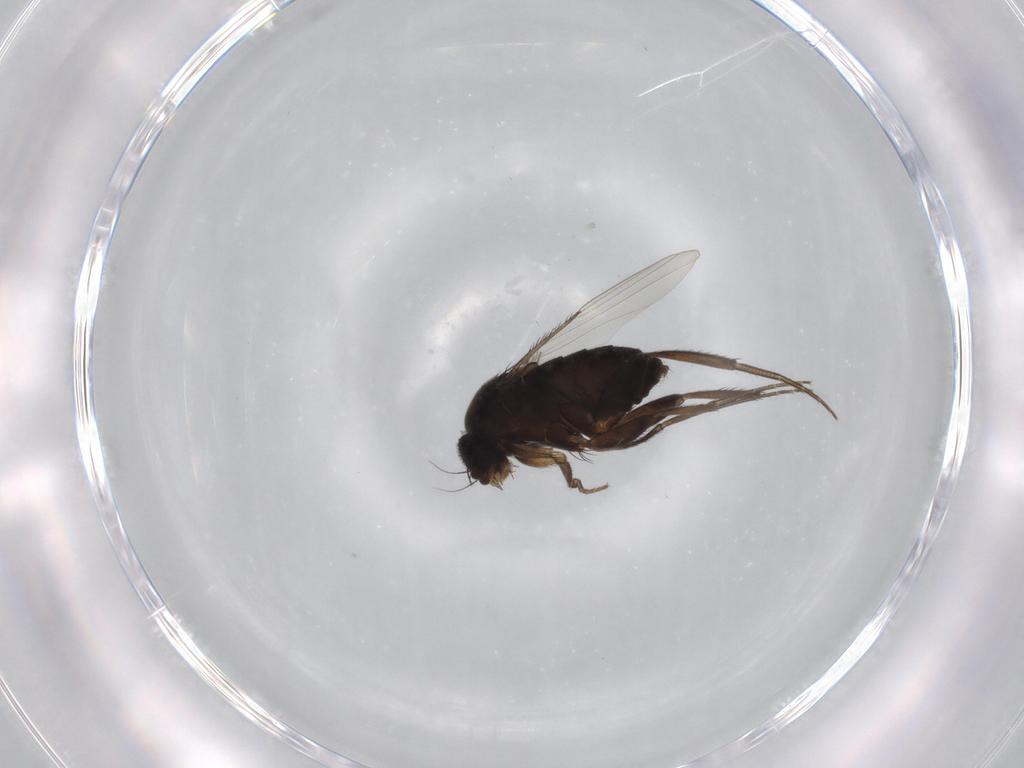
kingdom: Animalia
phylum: Arthropoda
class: Insecta
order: Diptera
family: Phoridae
